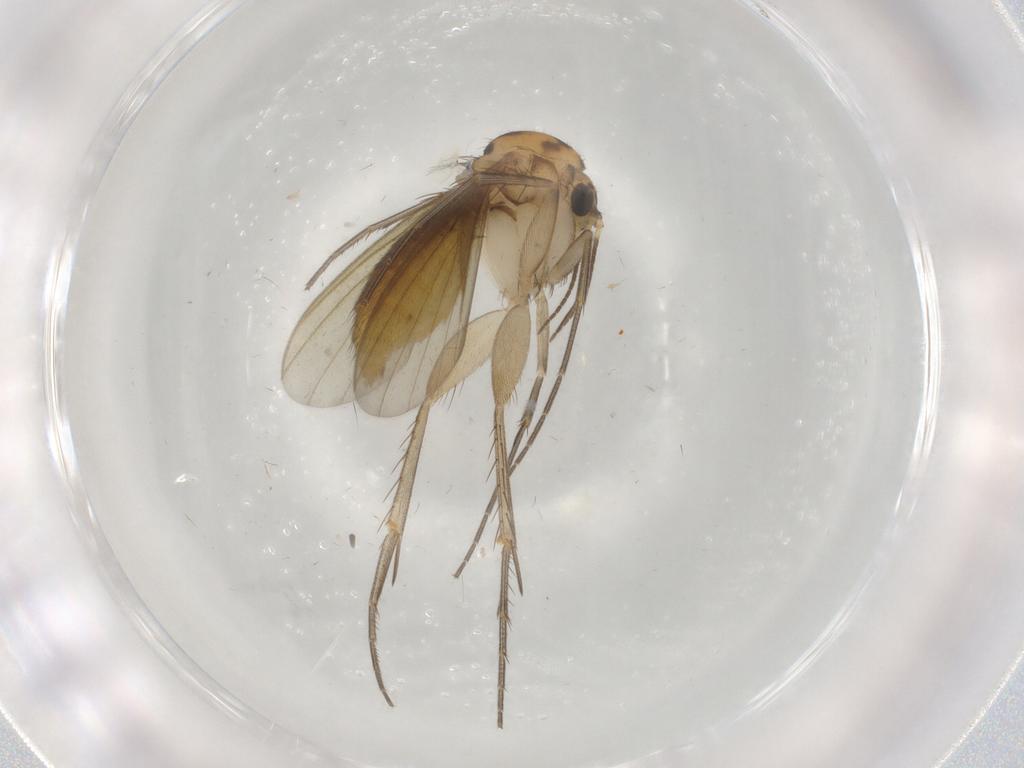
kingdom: Animalia
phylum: Arthropoda
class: Insecta
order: Diptera
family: Mycetophilidae
